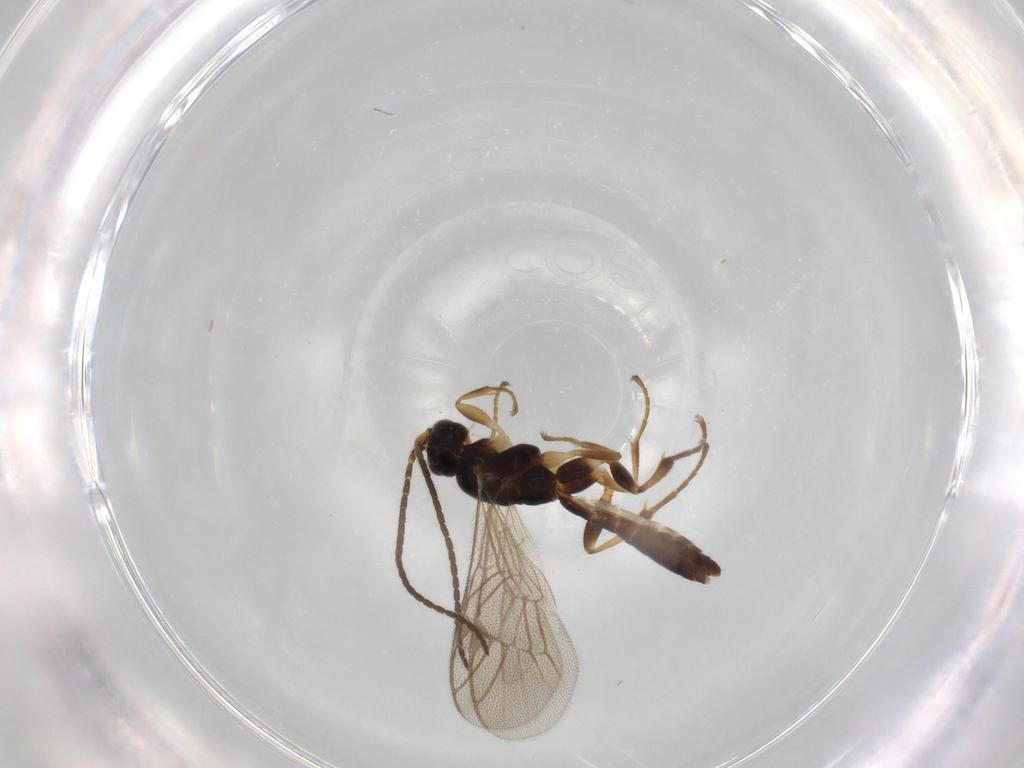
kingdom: Animalia
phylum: Arthropoda
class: Insecta
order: Hymenoptera
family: Ichneumonidae
